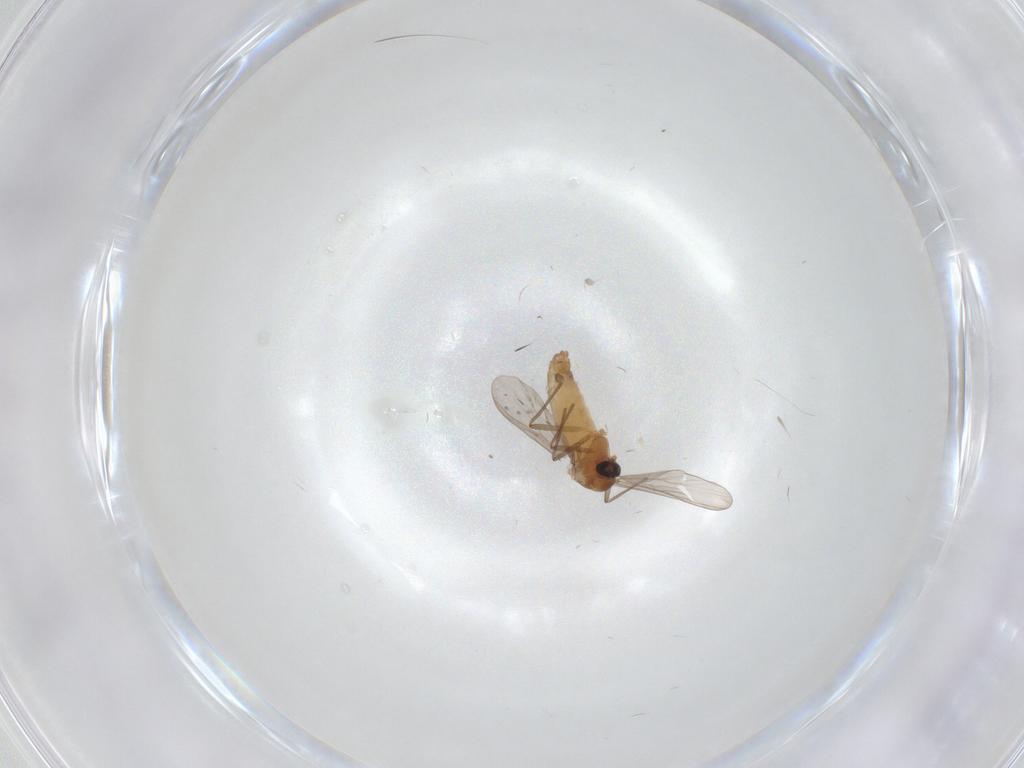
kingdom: Animalia
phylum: Arthropoda
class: Insecta
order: Diptera
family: Chironomidae
